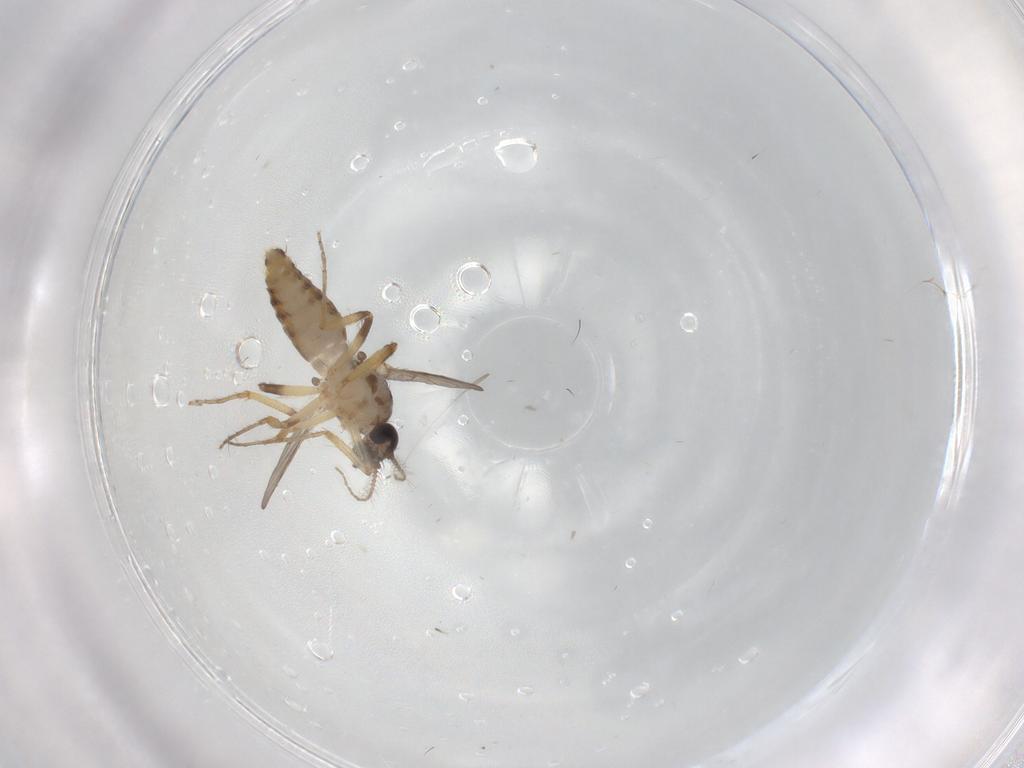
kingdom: Animalia
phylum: Arthropoda
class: Insecta
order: Diptera
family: Ceratopogonidae
